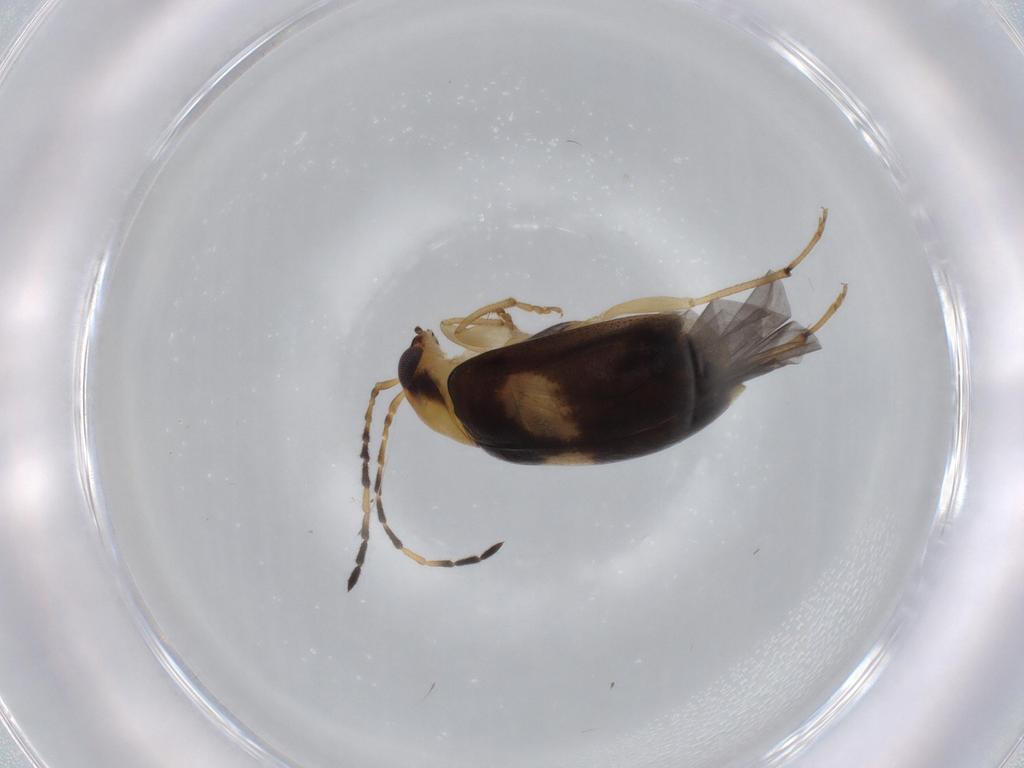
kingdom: Animalia
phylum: Arthropoda
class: Insecta
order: Coleoptera
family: Chrysomelidae
